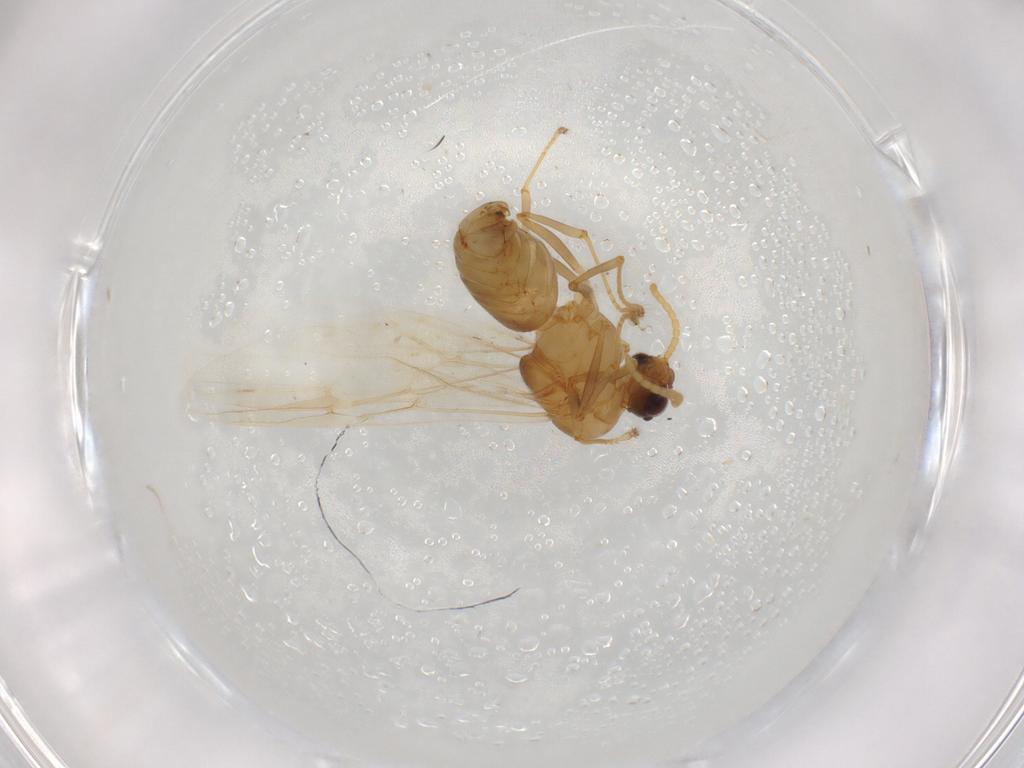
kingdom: Animalia
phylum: Arthropoda
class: Insecta
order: Hymenoptera
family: Formicidae
